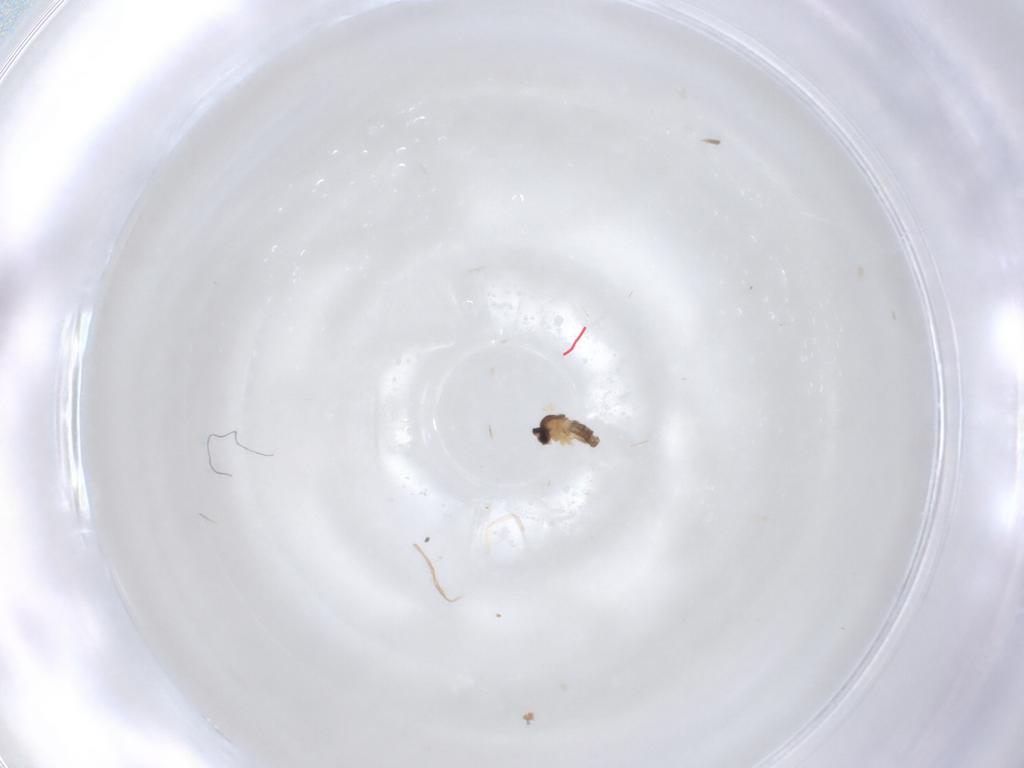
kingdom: Animalia
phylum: Arthropoda
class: Insecta
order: Diptera
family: Cecidomyiidae
